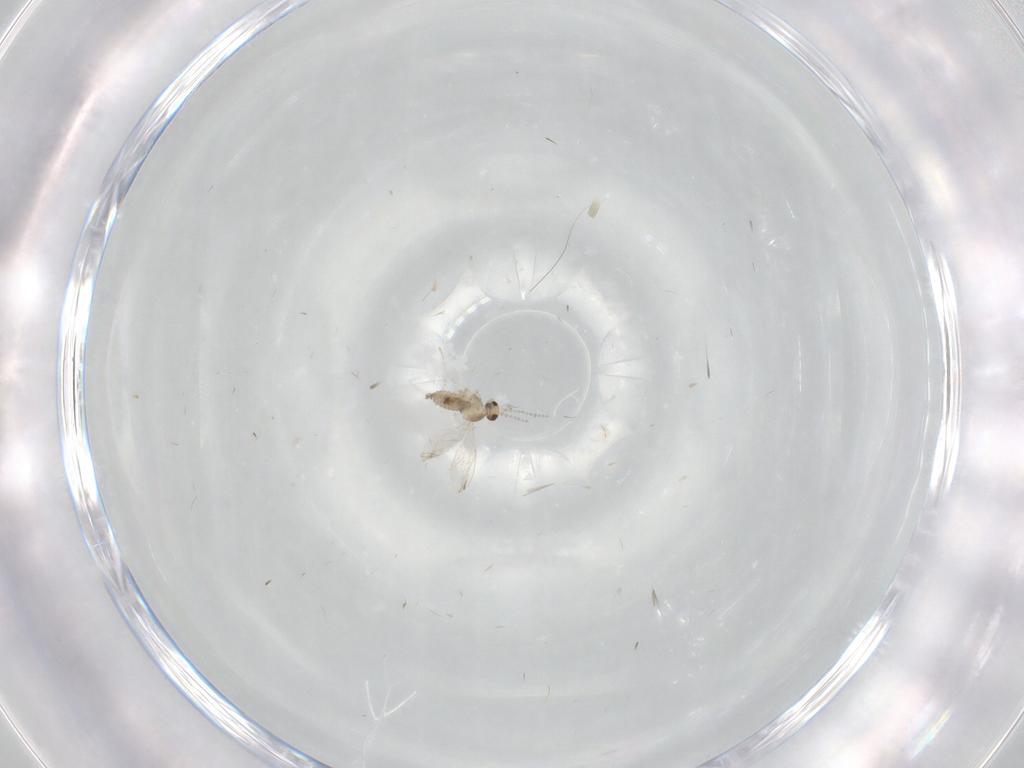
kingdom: Animalia
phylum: Arthropoda
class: Insecta
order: Diptera
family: Cecidomyiidae
